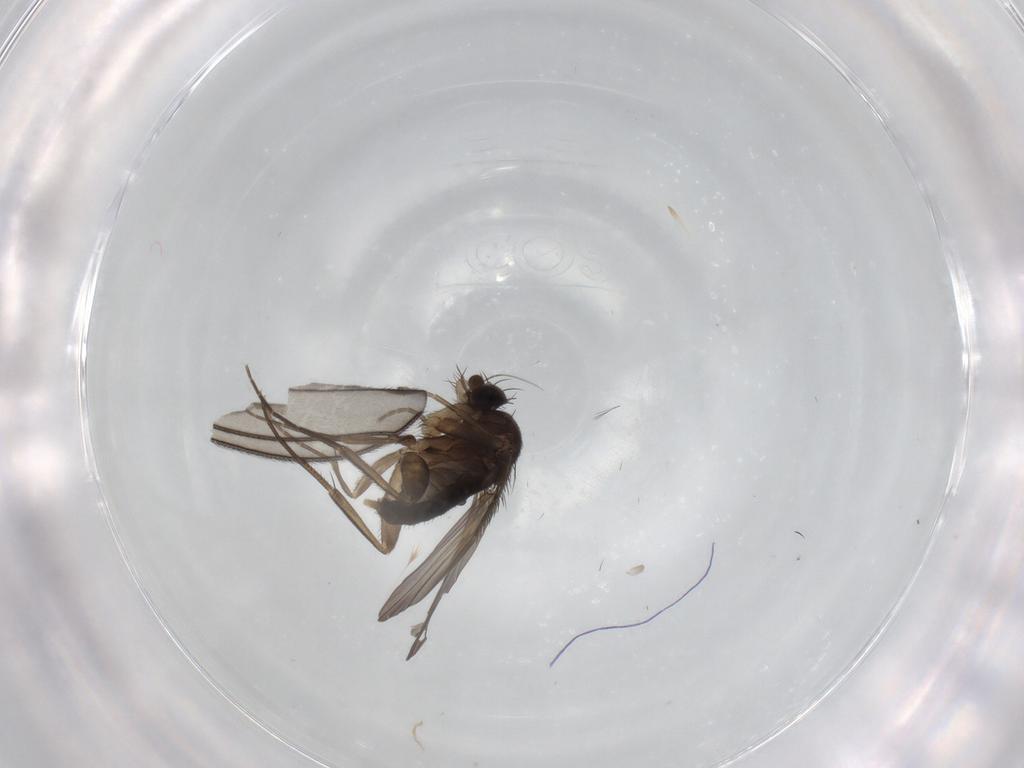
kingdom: Animalia
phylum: Arthropoda
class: Insecta
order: Diptera
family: Phoridae
